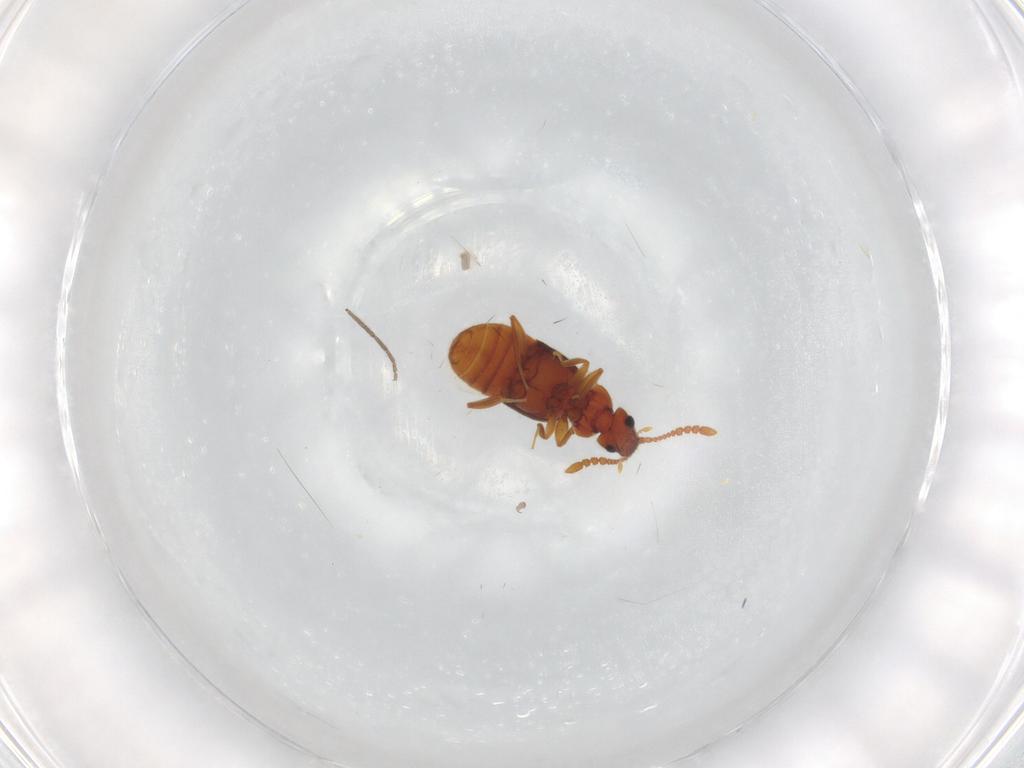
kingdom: Animalia
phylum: Arthropoda
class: Insecta
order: Coleoptera
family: Chrysomelidae
